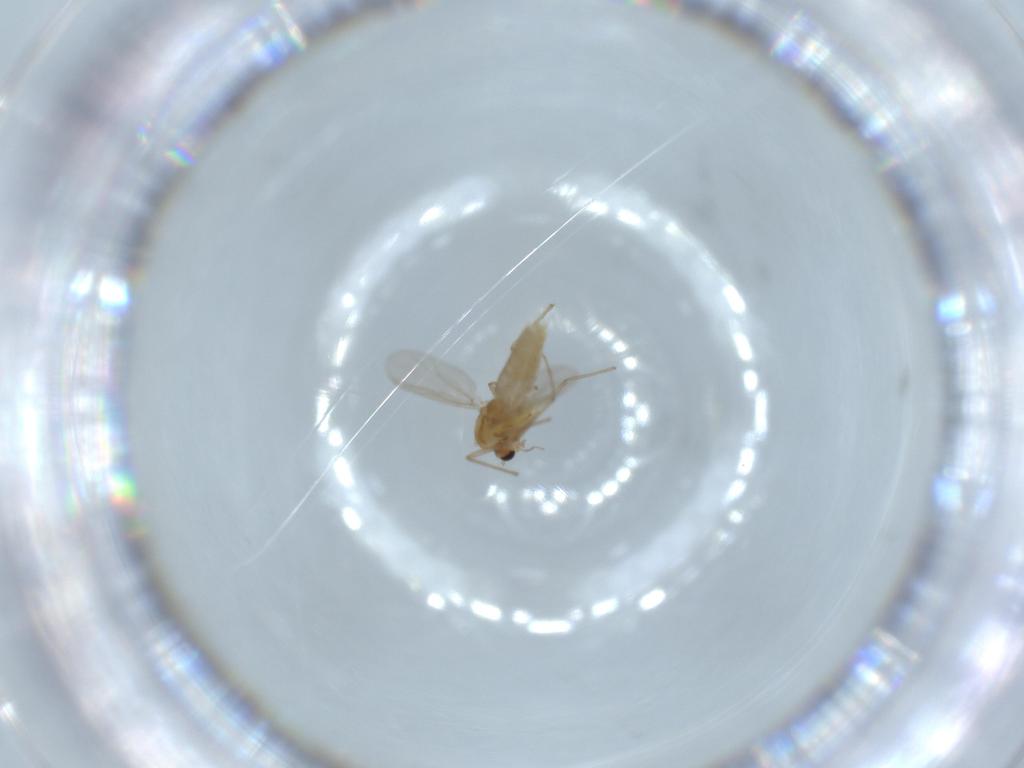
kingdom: Animalia
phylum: Arthropoda
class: Insecta
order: Diptera
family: Chironomidae
